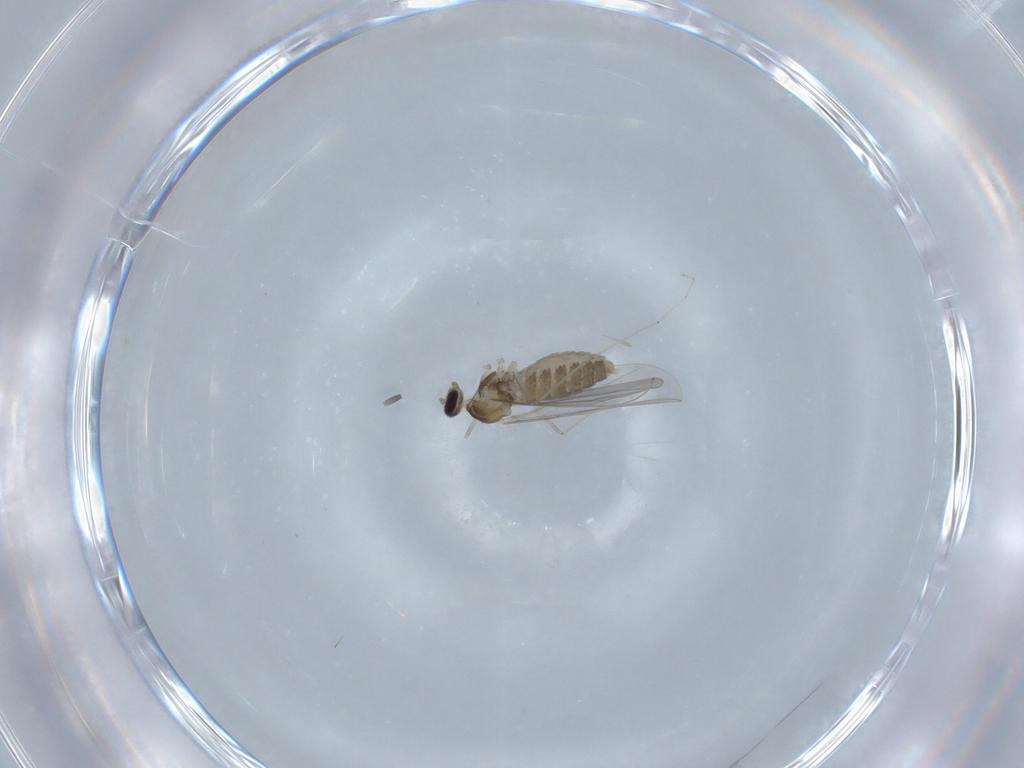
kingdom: Animalia
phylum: Arthropoda
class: Insecta
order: Diptera
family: Cecidomyiidae
